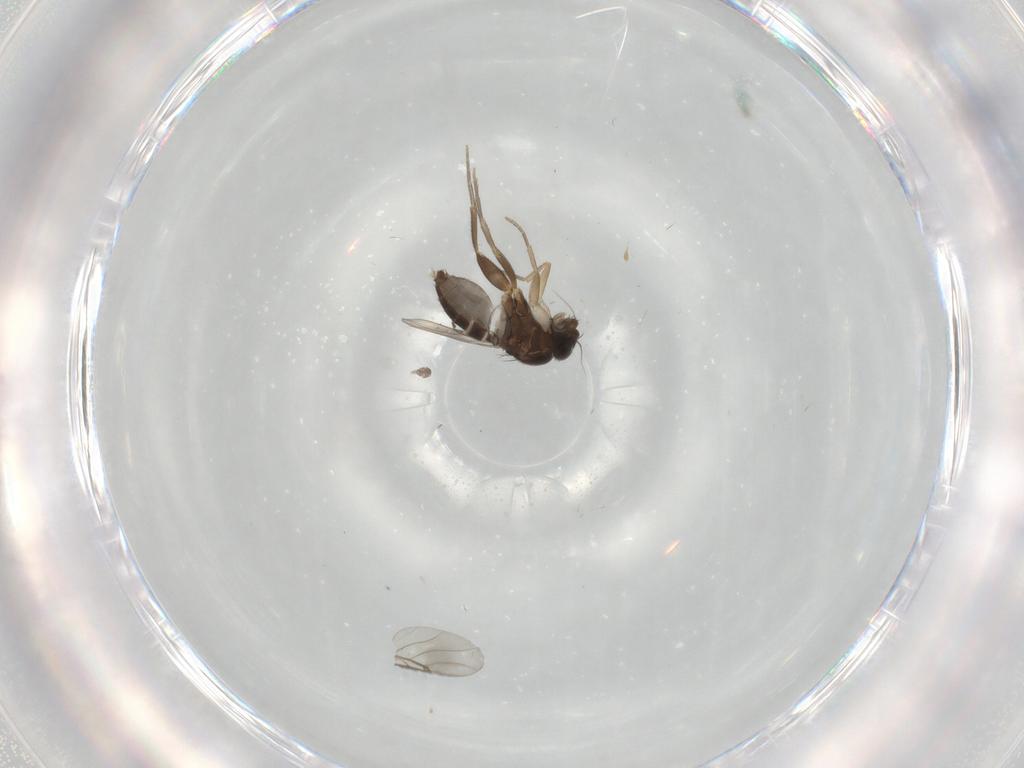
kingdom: Animalia
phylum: Arthropoda
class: Insecta
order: Diptera
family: Phoridae
